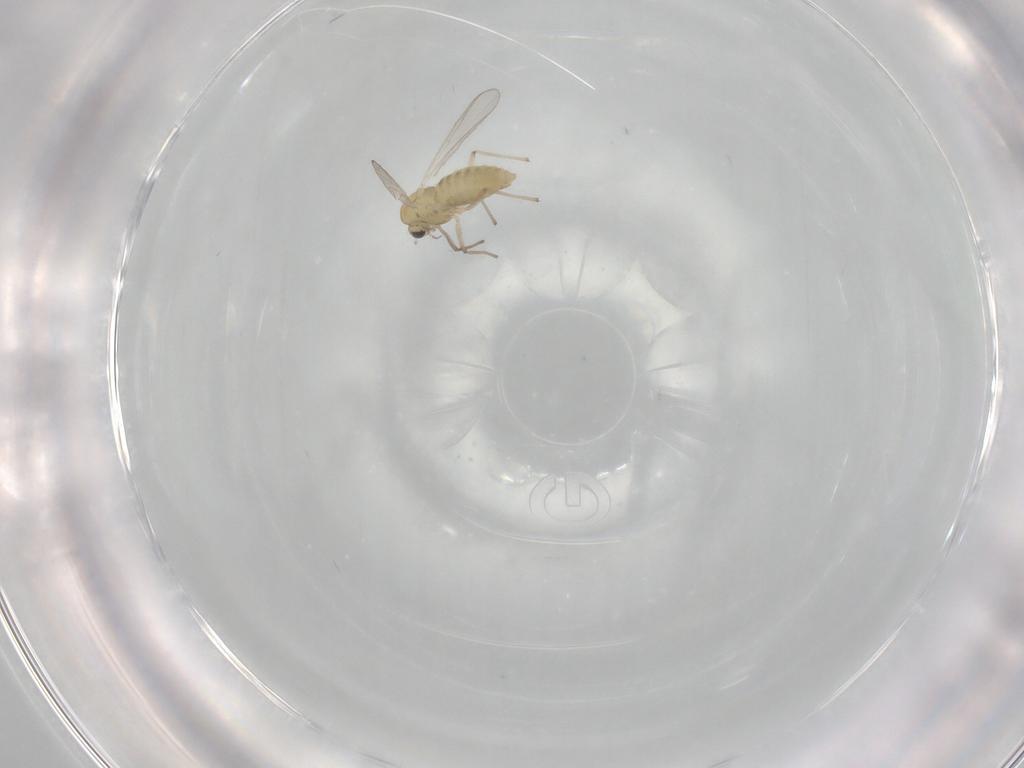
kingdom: Animalia
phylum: Arthropoda
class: Insecta
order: Diptera
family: Chironomidae
